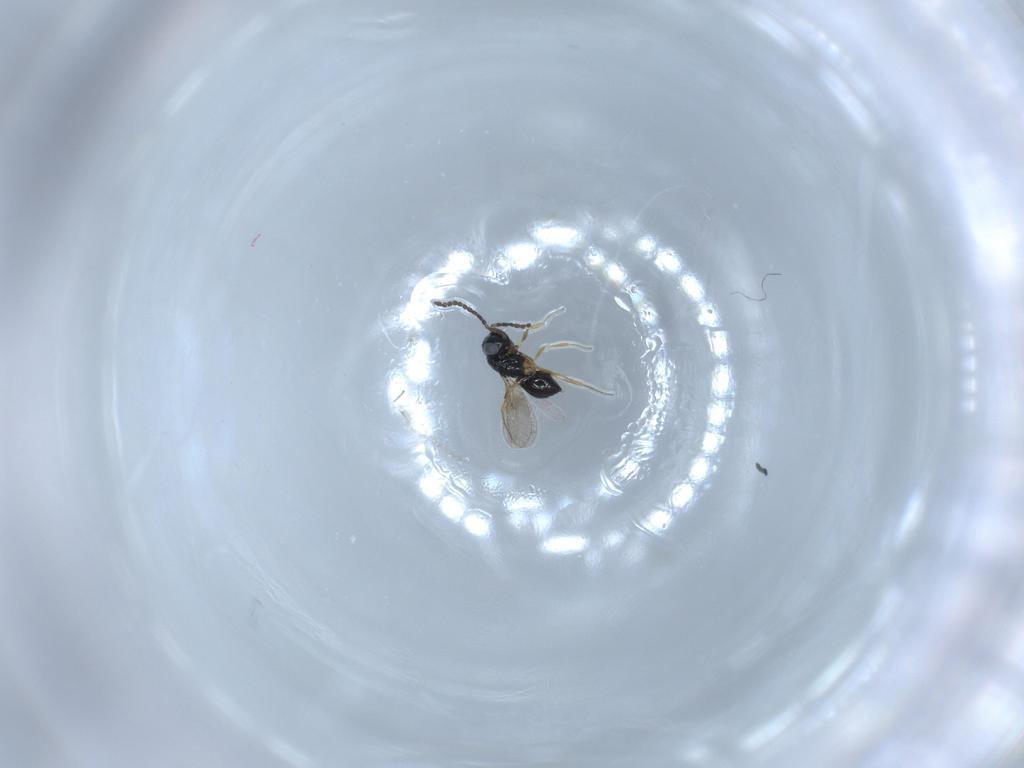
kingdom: Animalia
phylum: Arthropoda
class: Insecta
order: Hymenoptera
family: Scelionidae
